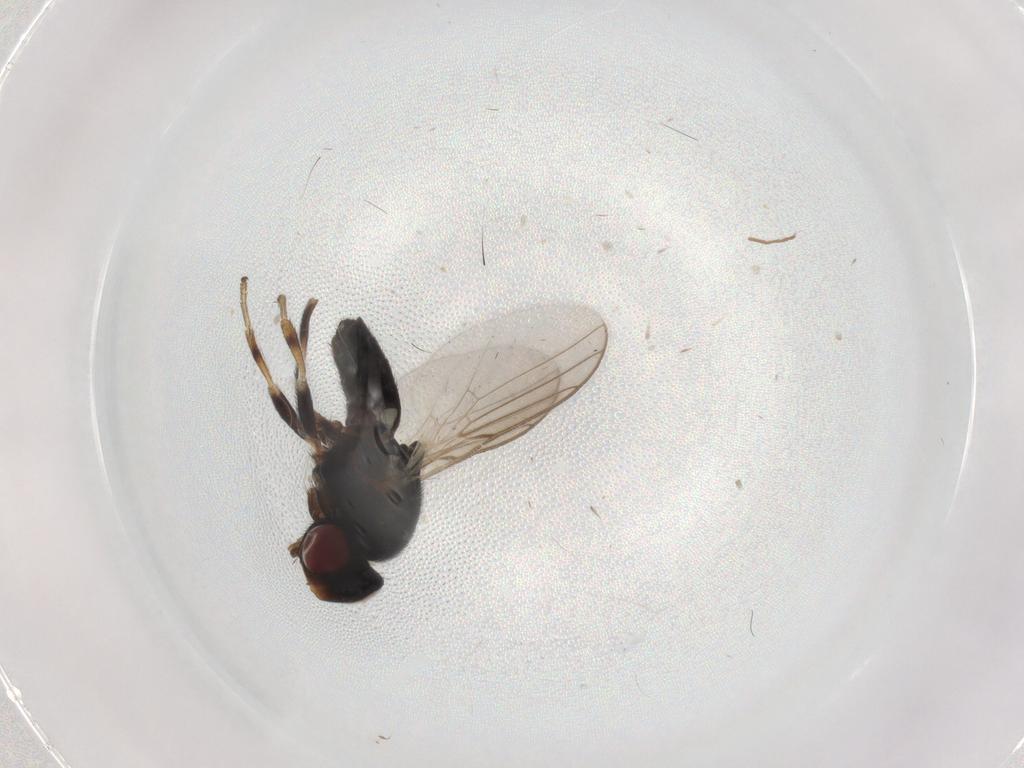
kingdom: Animalia
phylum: Arthropoda
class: Insecta
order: Diptera
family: Chloropidae
